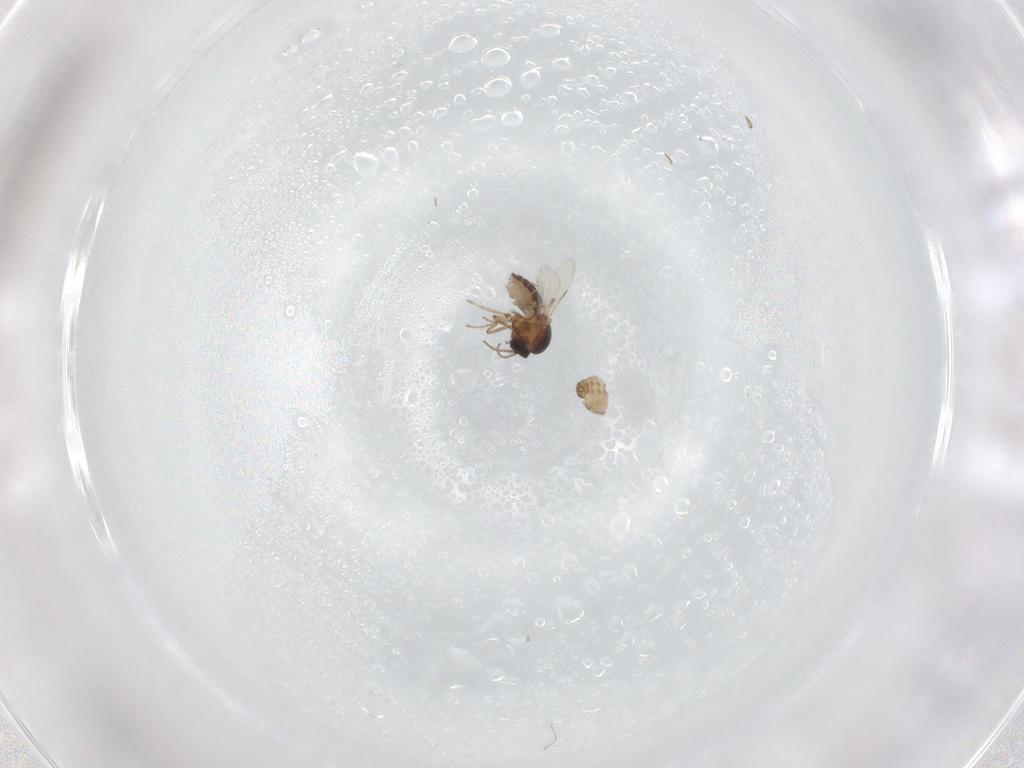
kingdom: Animalia
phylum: Arthropoda
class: Insecta
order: Diptera
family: Ceratopogonidae
